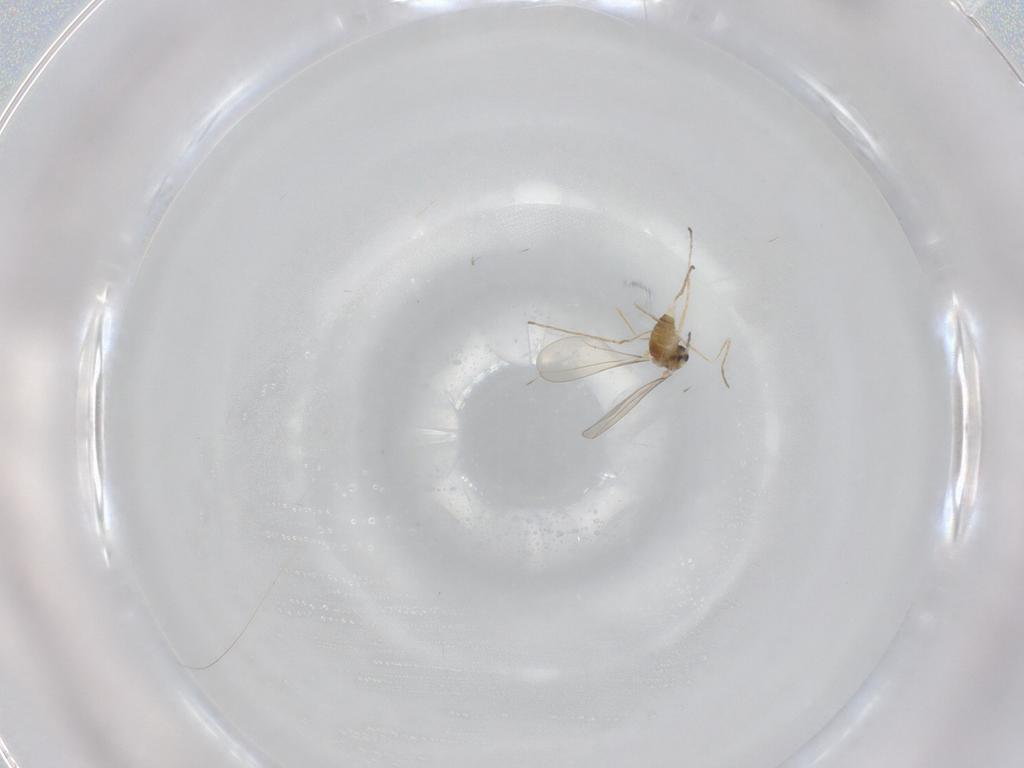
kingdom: Animalia
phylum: Arthropoda
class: Insecta
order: Diptera
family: Cecidomyiidae
